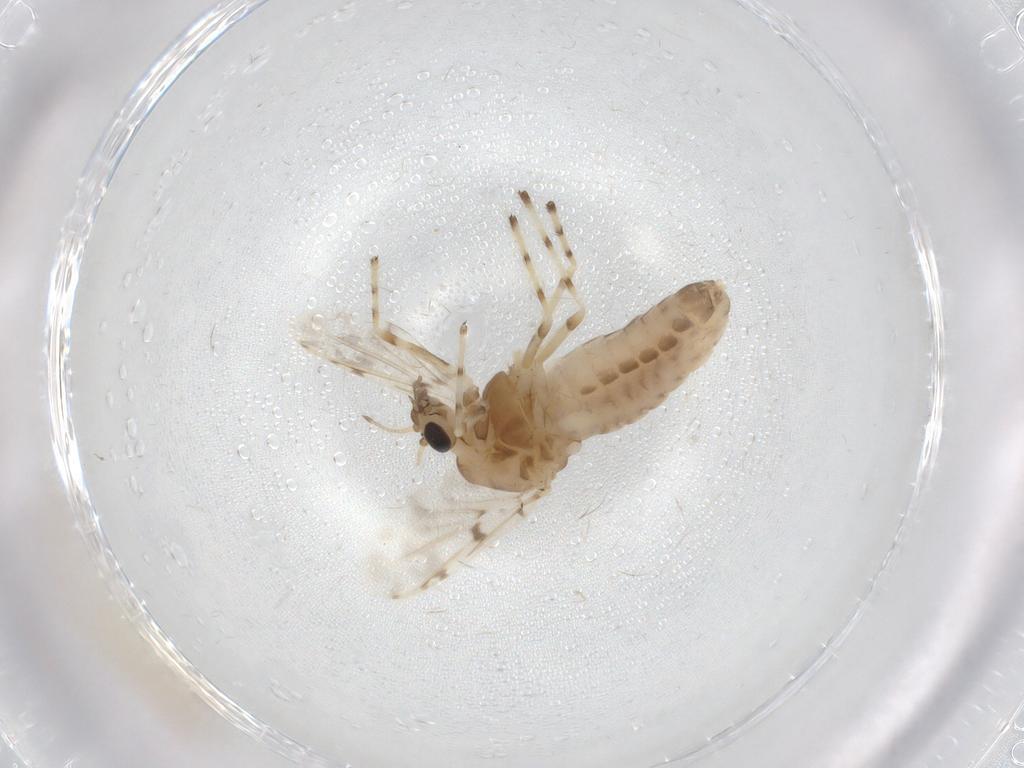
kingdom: Animalia
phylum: Arthropoda
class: Insecta
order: Diptera
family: Chironomidae
